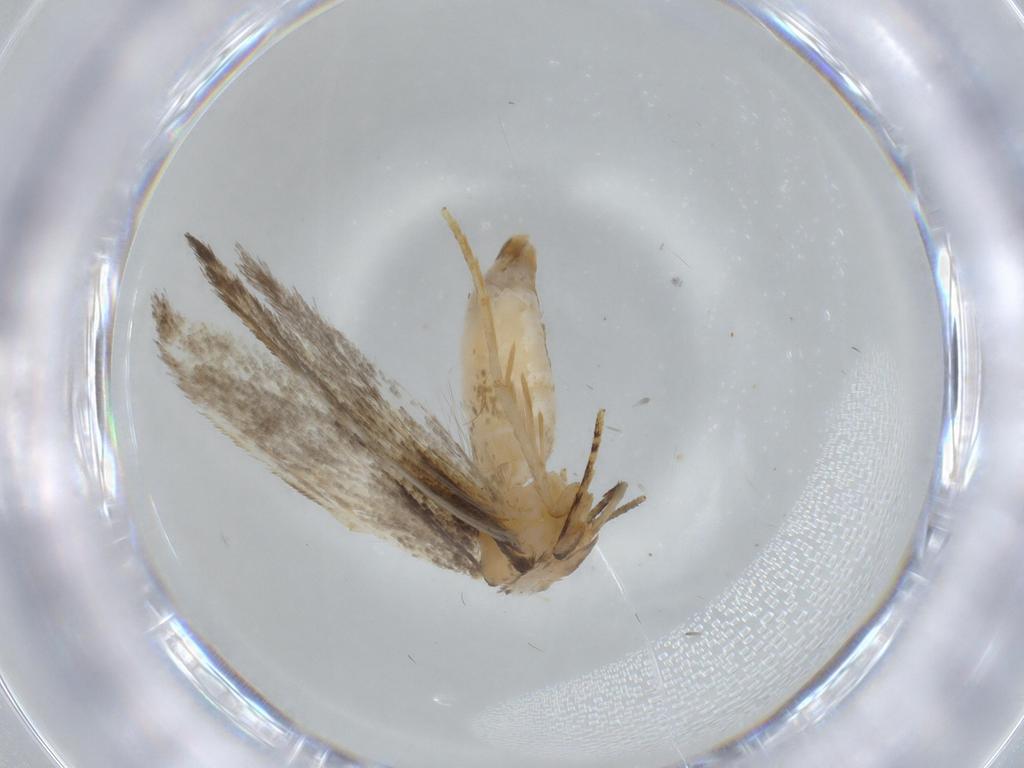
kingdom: Animalia
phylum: Arthropoda
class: Insecta
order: Lepidoptera
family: Tineidae
